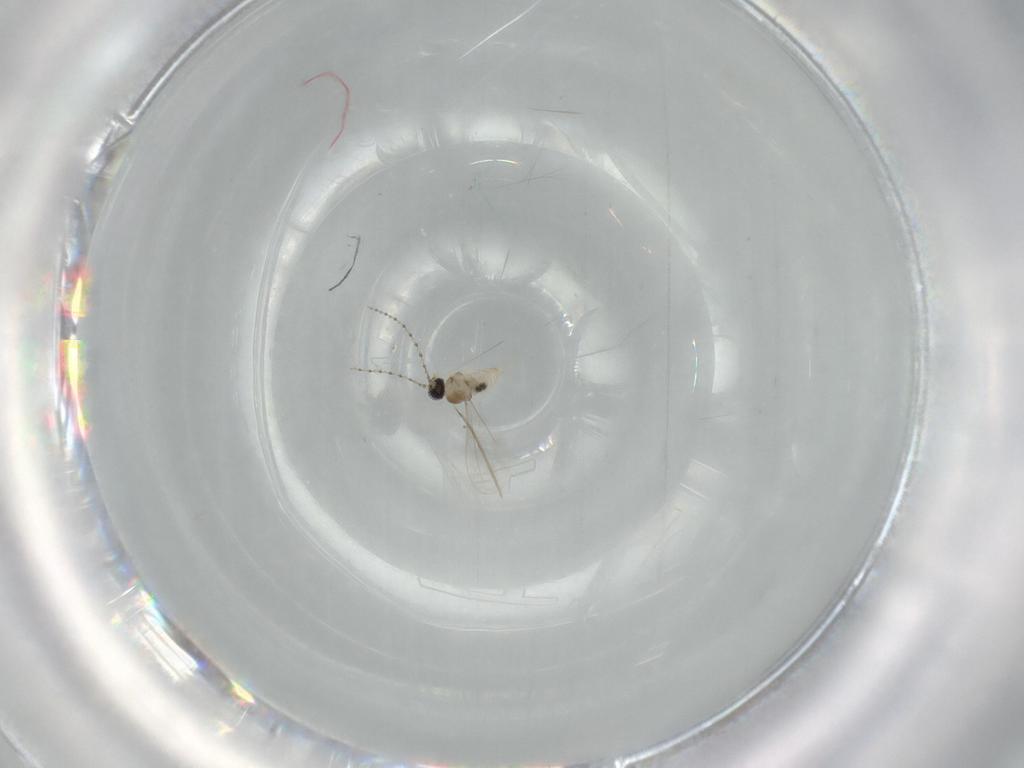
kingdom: Animalia
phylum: Arthropoda
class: Insecta
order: Diptera
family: Cecidomyiidae
